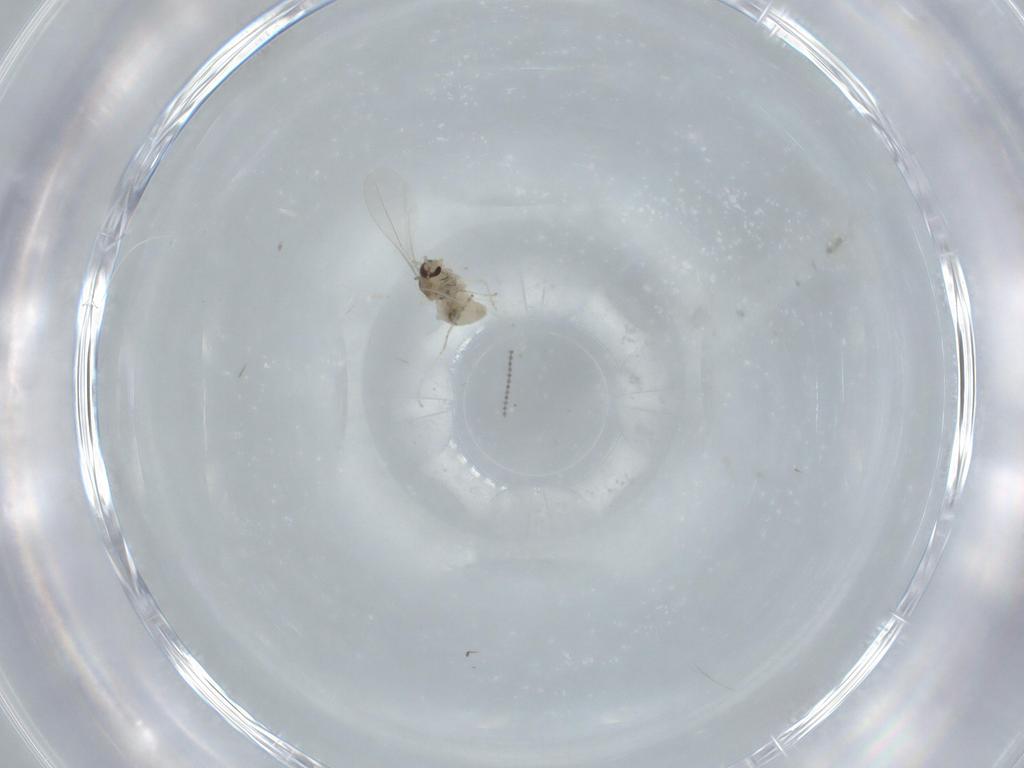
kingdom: Animalia
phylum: Arthropoda
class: Insecta
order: Diptera
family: Cecidomyiidae
